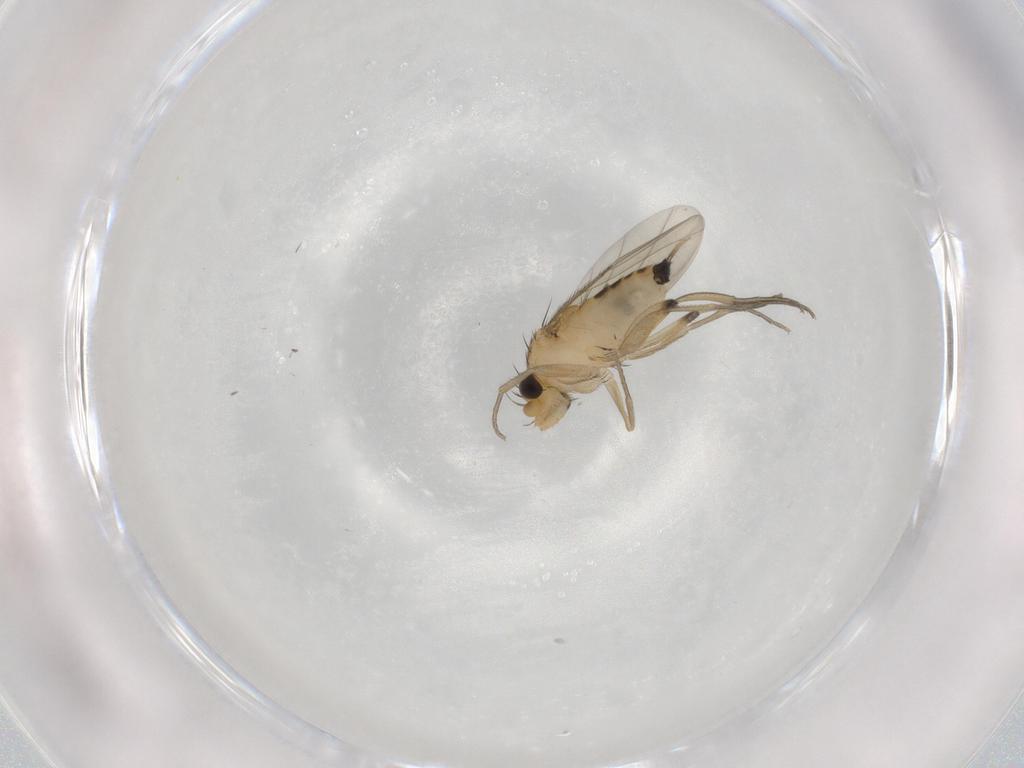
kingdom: Animalia
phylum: Arthropoda
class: Insecta
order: Diptera
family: Phoridae
